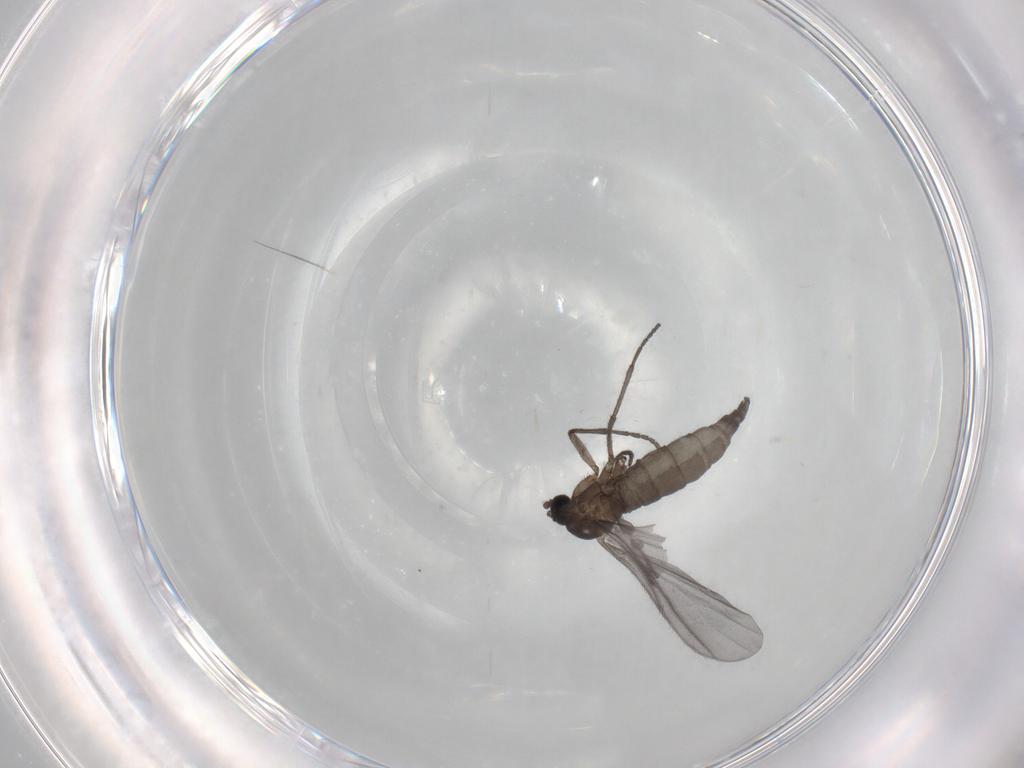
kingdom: Animalia
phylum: Arthropoda
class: Insecta
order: Diptera
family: Sciaridae
